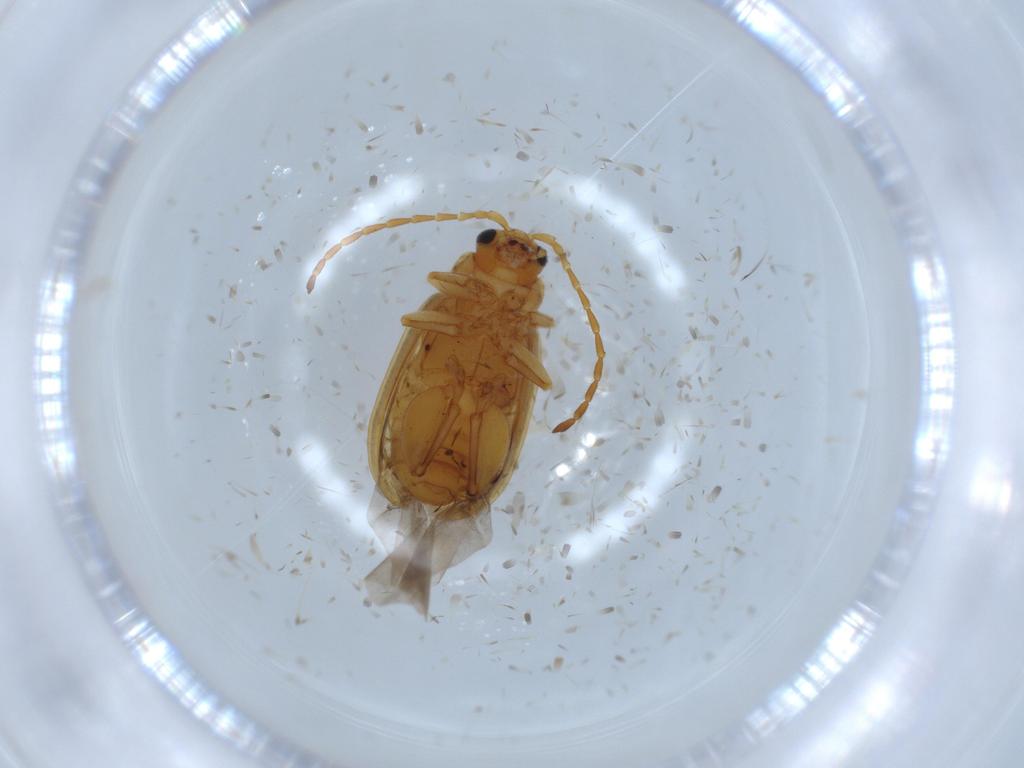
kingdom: Animalia
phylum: Arthropoda
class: Insecta
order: Coleoptera
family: Chrysomelidae
